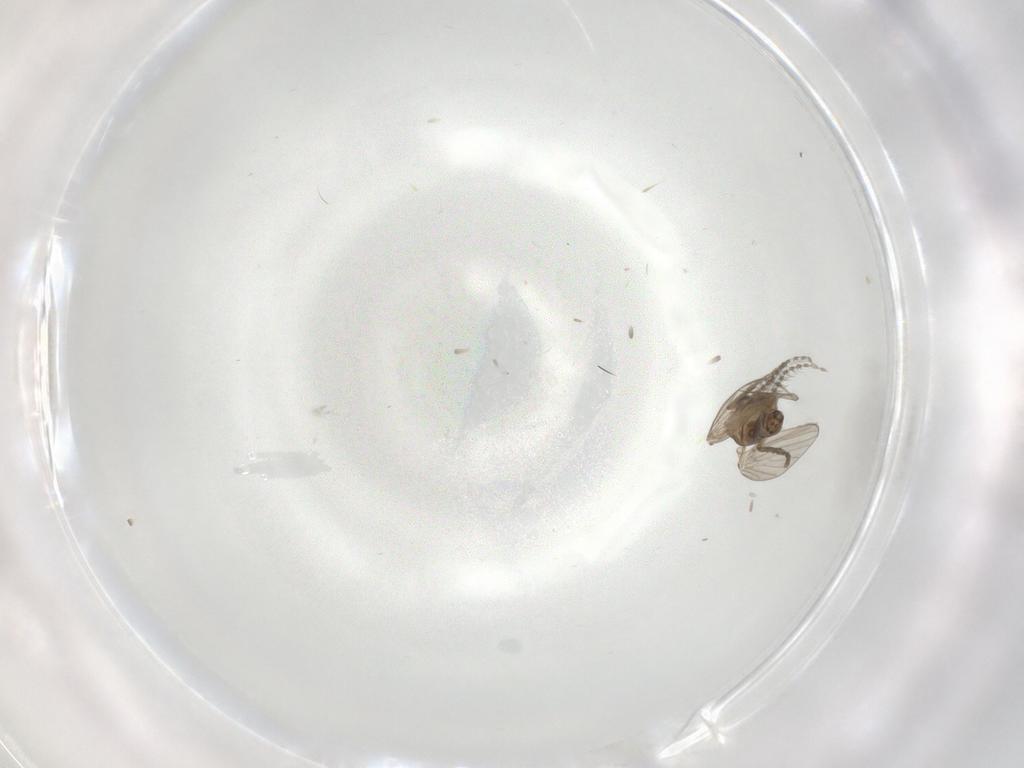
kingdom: Animalia
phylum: Arthropoda
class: Insecta
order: Diptera
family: Sciaridae
